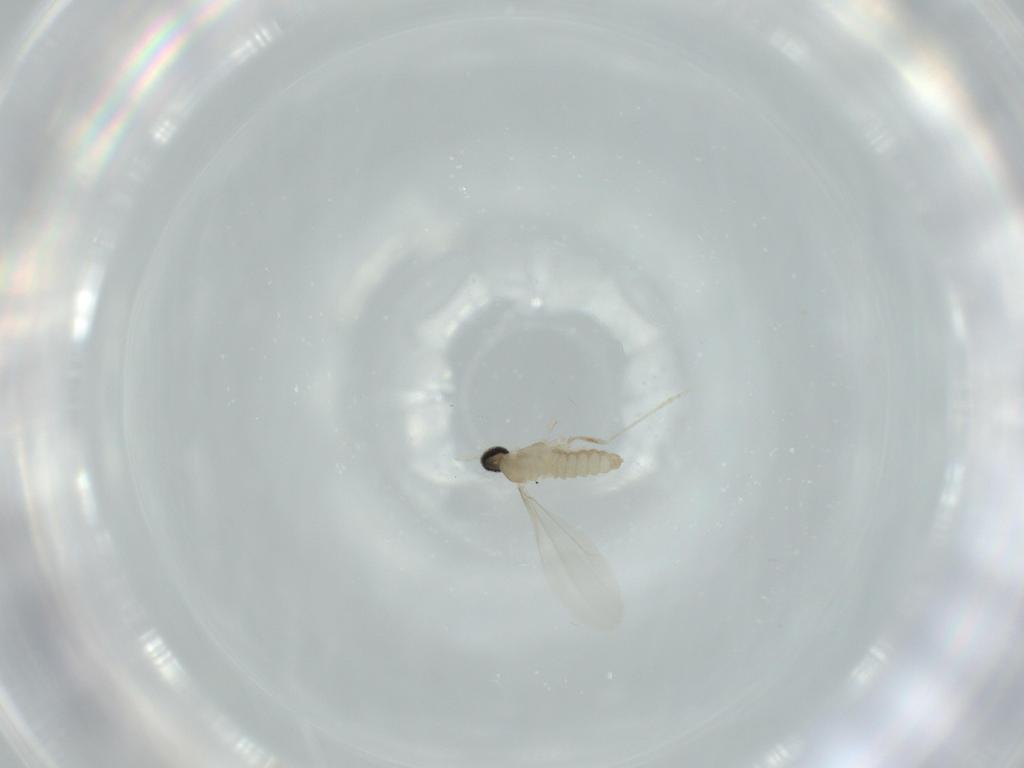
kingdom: Animalia
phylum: Arthropoda
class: Insecta
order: Diptera
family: Cecidomyiidae
